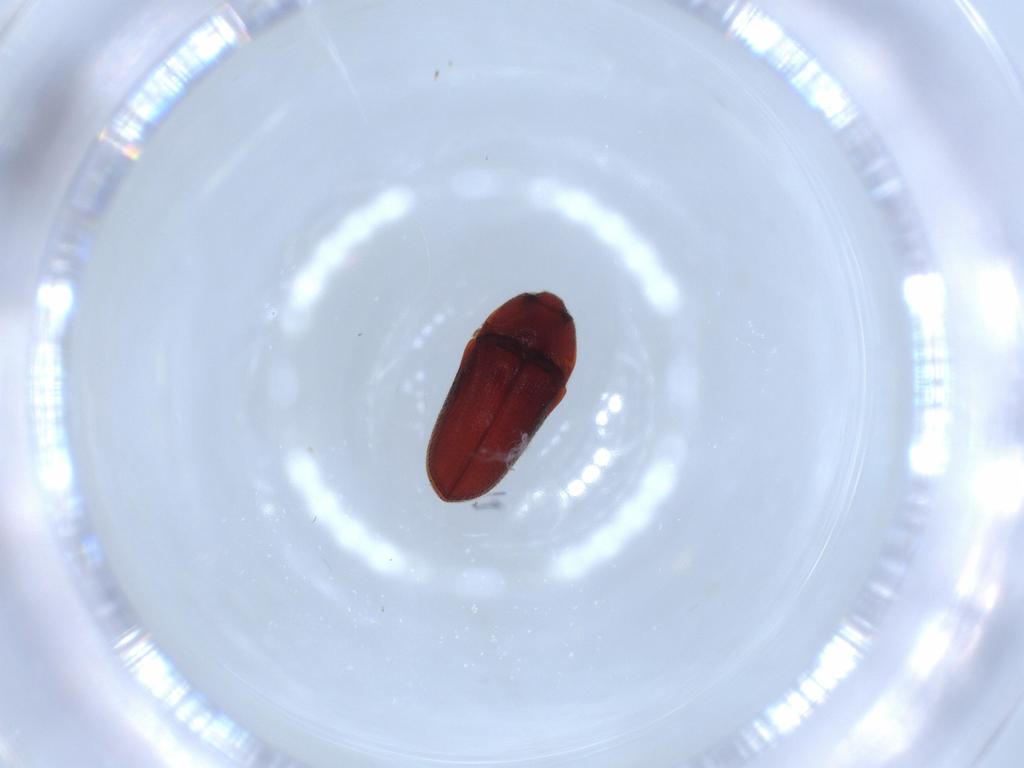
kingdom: Animalia
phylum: Arthropoda
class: Insecta
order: Coleoptera
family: Throscidae
